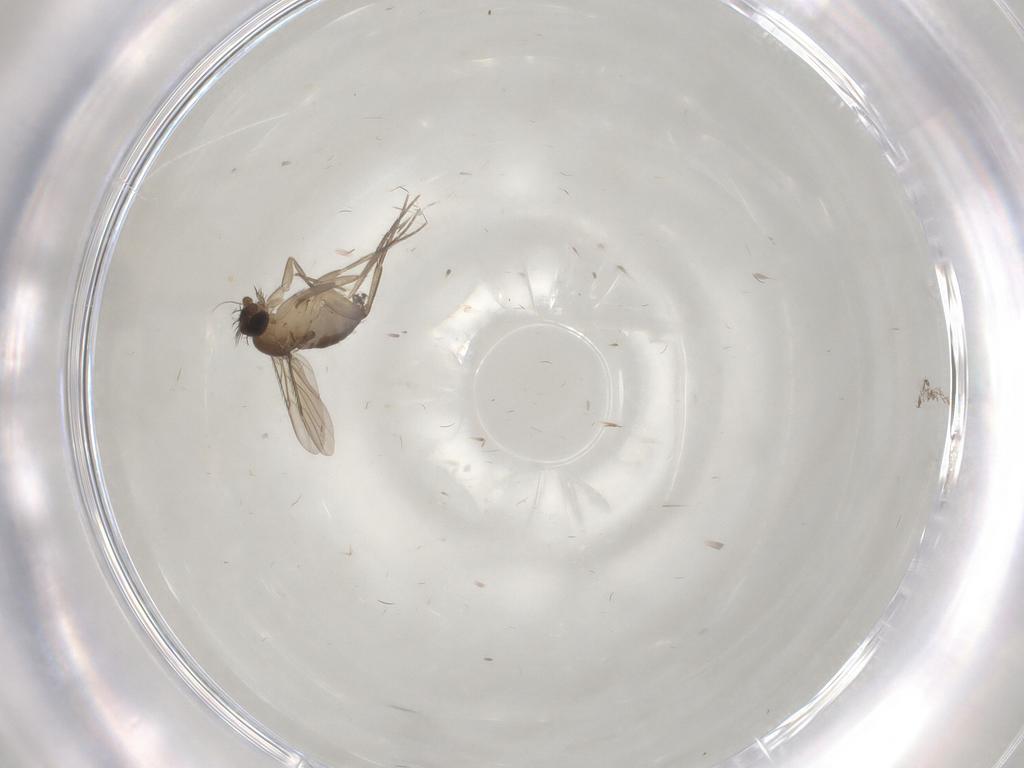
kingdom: Animalia
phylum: Arthropoda
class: Insecta
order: Diptera
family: Phoridae
